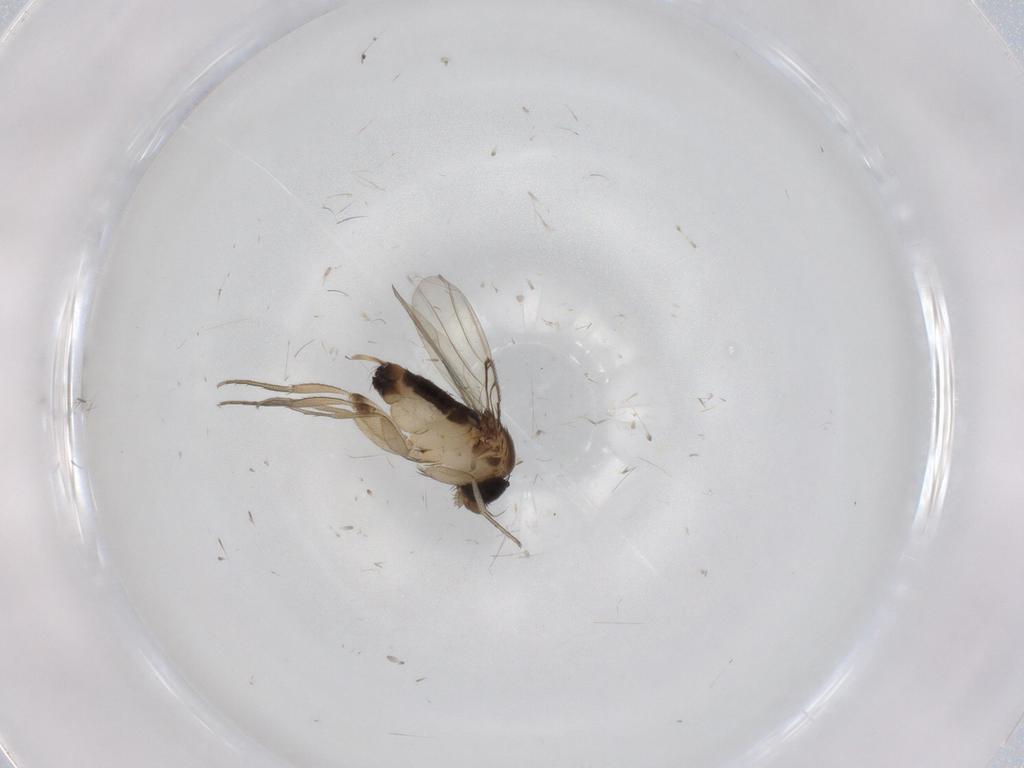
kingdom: Animalia
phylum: Arthropoda
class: Insecta
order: Diptera
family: Phoridae
